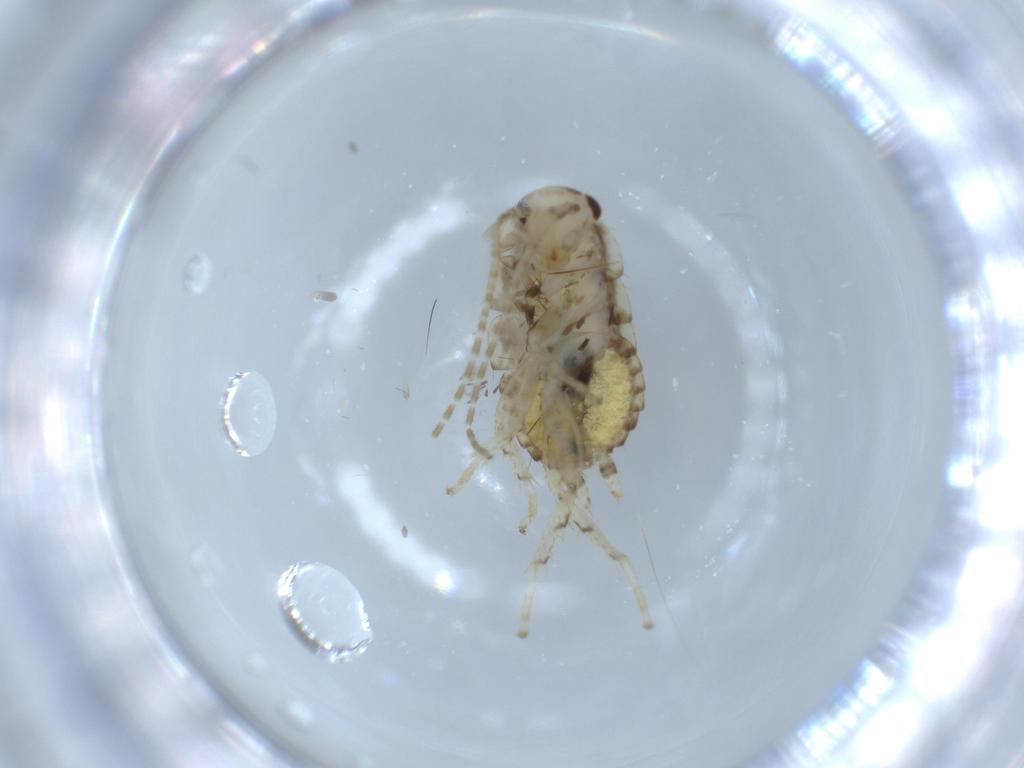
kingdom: Animalia
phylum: Arthropoda
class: Insecta
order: Blattodea
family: Ectobiidae
